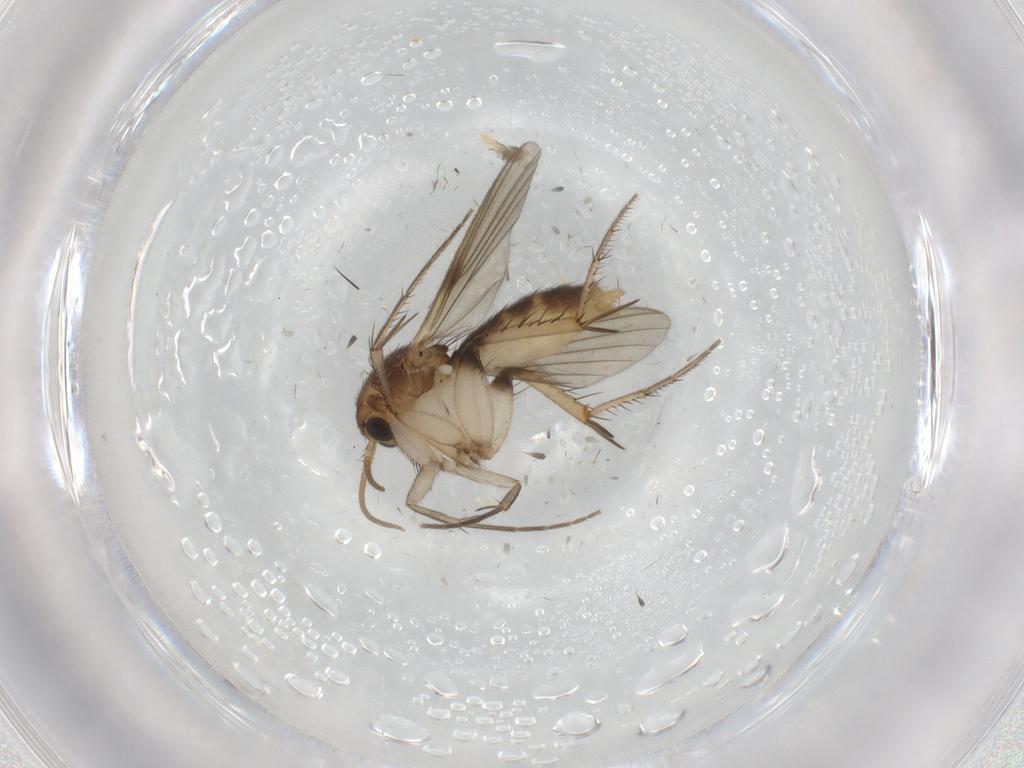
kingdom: Animalia
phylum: Arthropoda
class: Insecta
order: Diptera
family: Mycetophilidae
